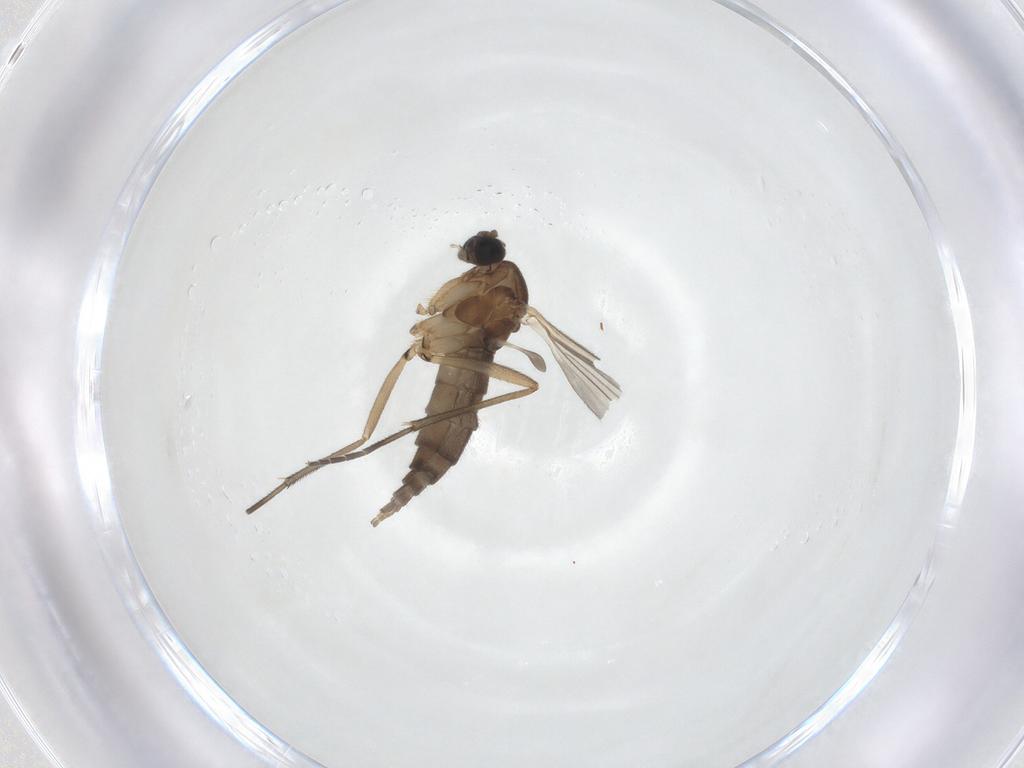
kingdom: Animalia
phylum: Arthropoda
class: Insecta
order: Diptera
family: Sciaridae
